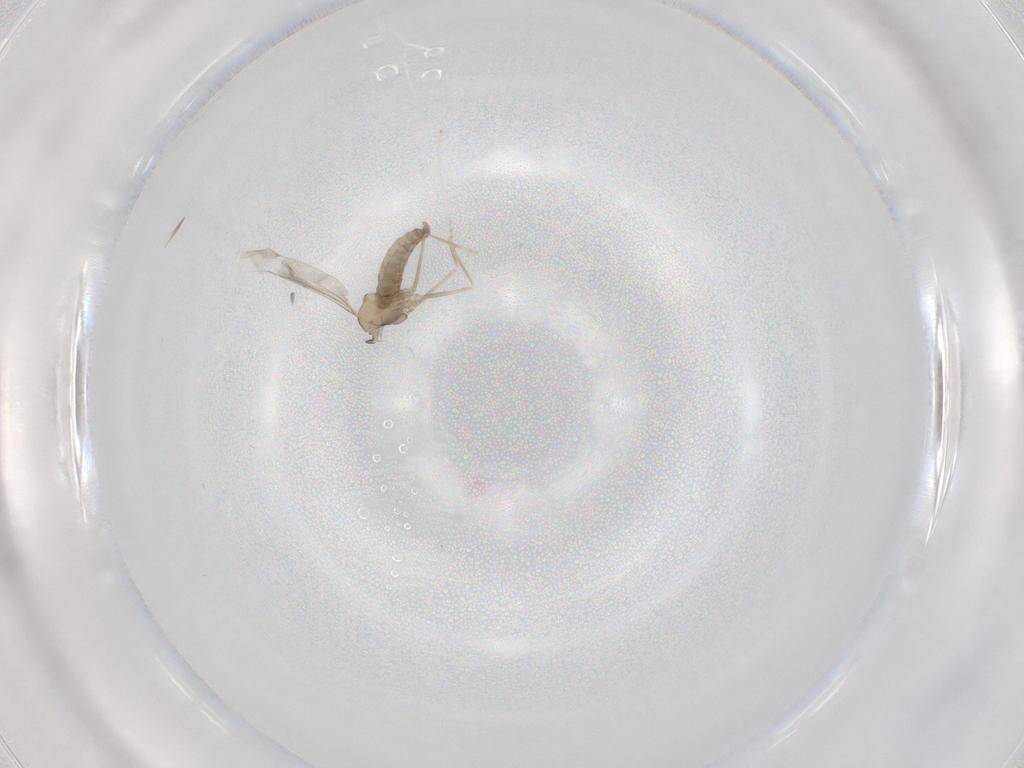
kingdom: Animalia
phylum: Arthropoda
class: Insecta
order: Diptera
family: Cecidomyiidae
